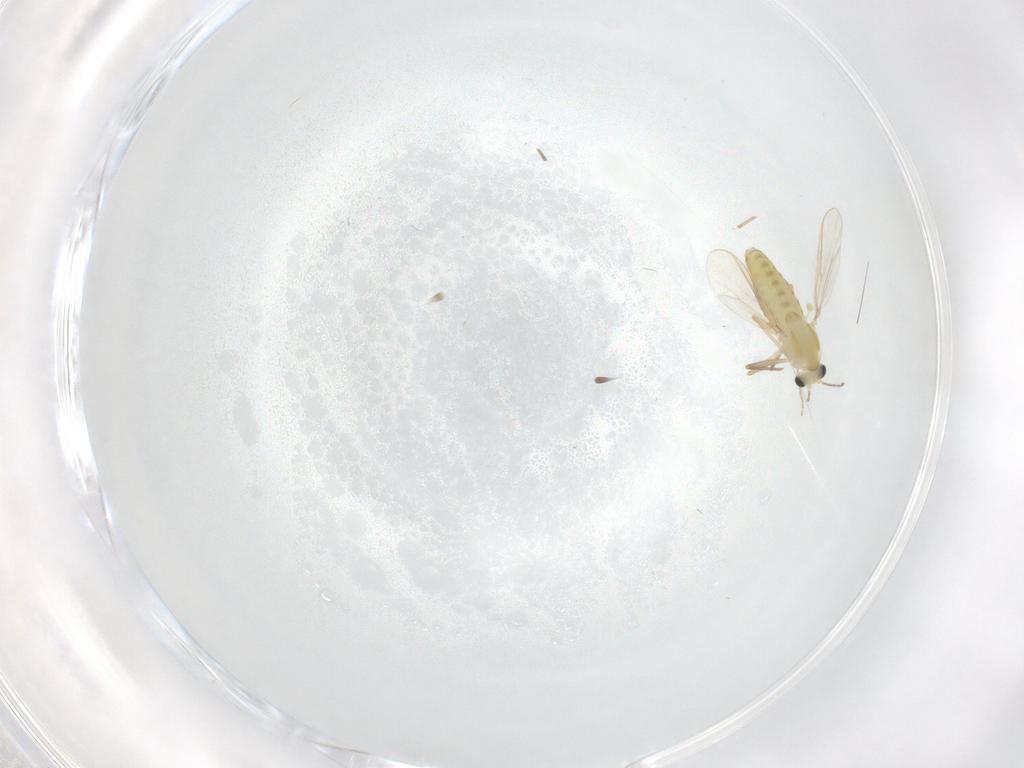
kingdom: Animalia
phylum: Arthropoda
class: Insecta
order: Diptera
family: Chironomidae
